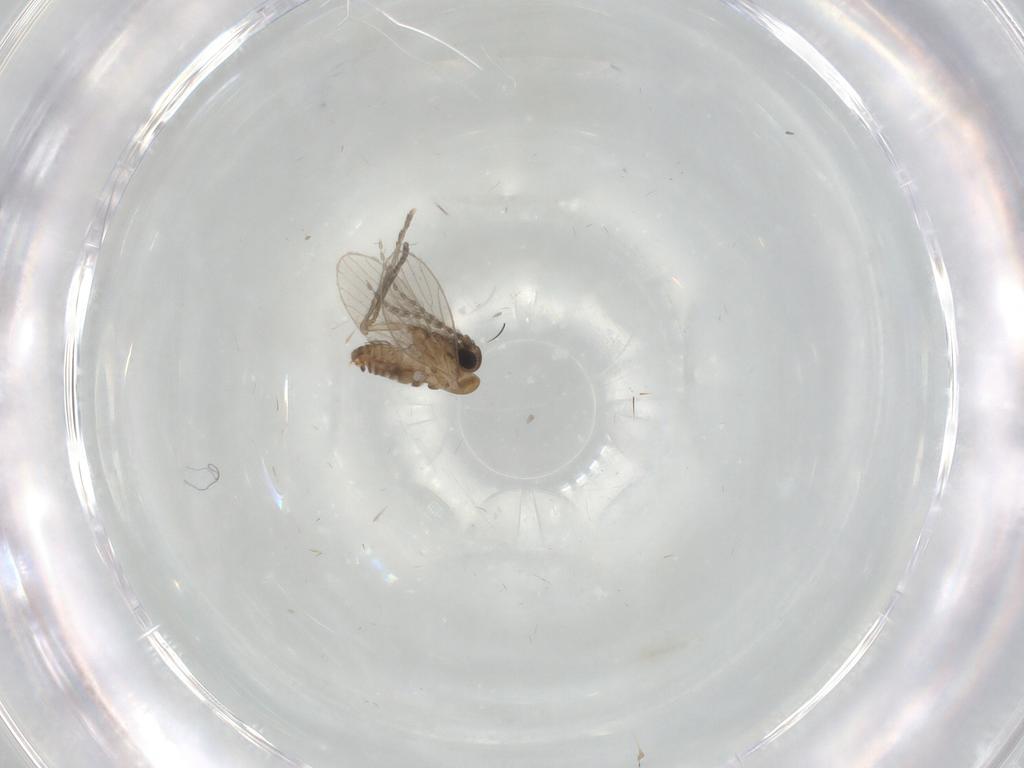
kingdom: Animalia
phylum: Arthropoda
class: Insecta
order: Diptera
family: Psychodidae
